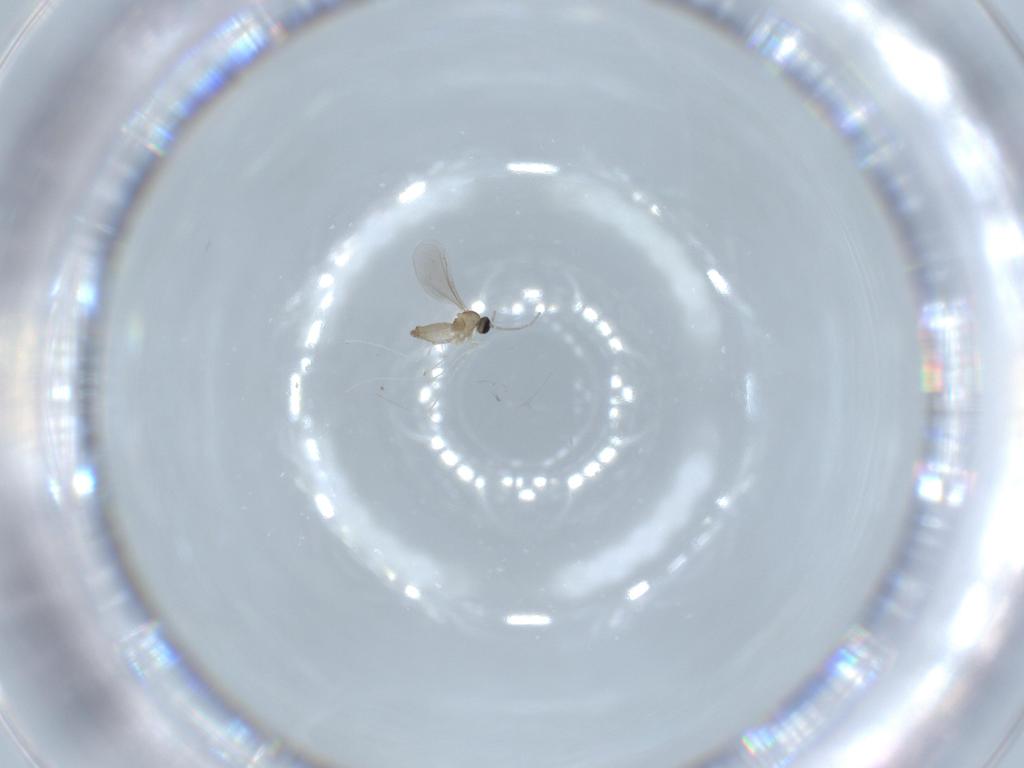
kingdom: Animalia
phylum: Arthropoda
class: Insecta
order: Diptera
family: Cecidomyiidae
